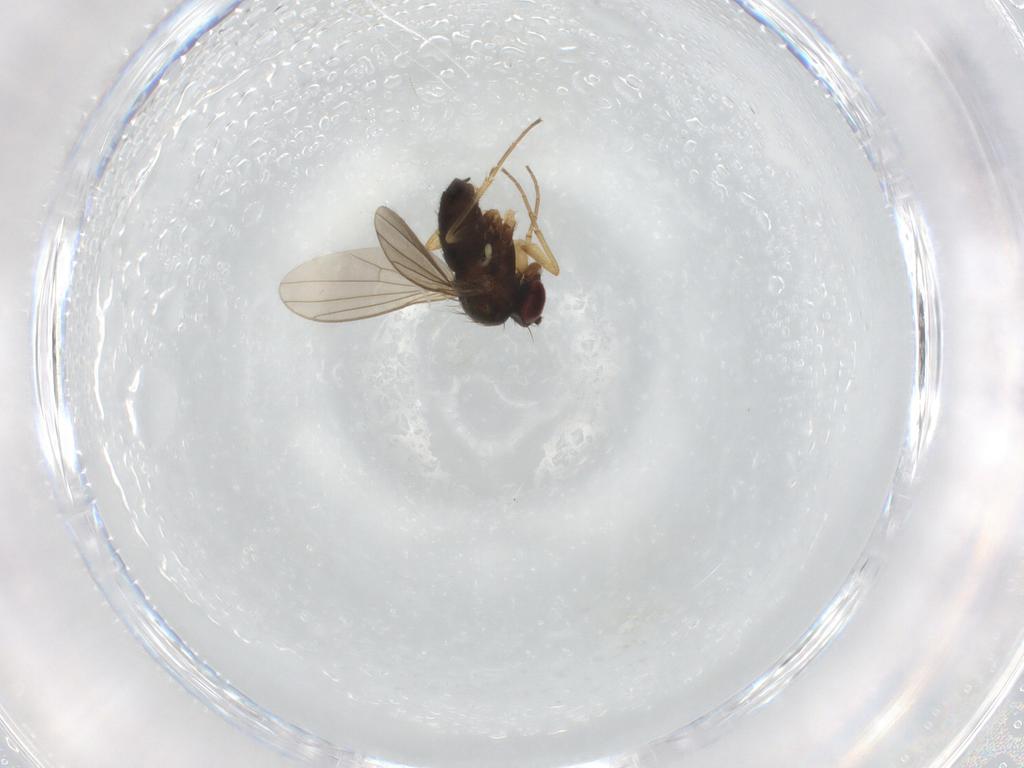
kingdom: Animalia
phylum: Arthropoda
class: Insecta
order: Diptera
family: Dolichopodidae
